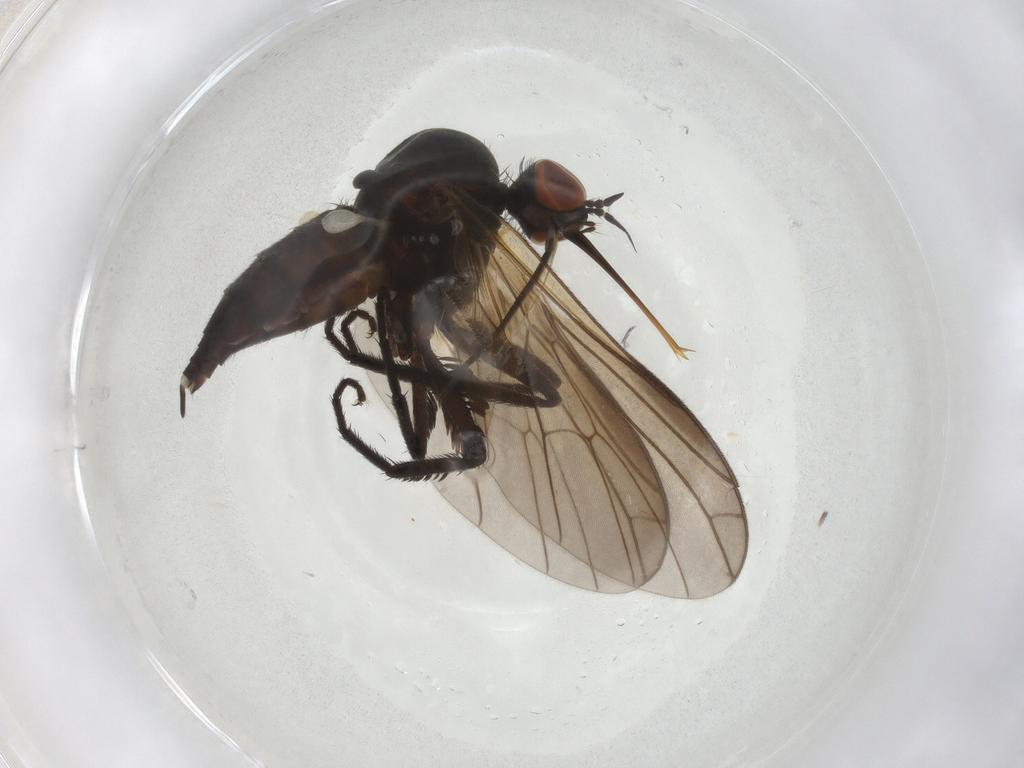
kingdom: Animalia
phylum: Arthropoda
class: Insecta
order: Diptera
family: Empididae
